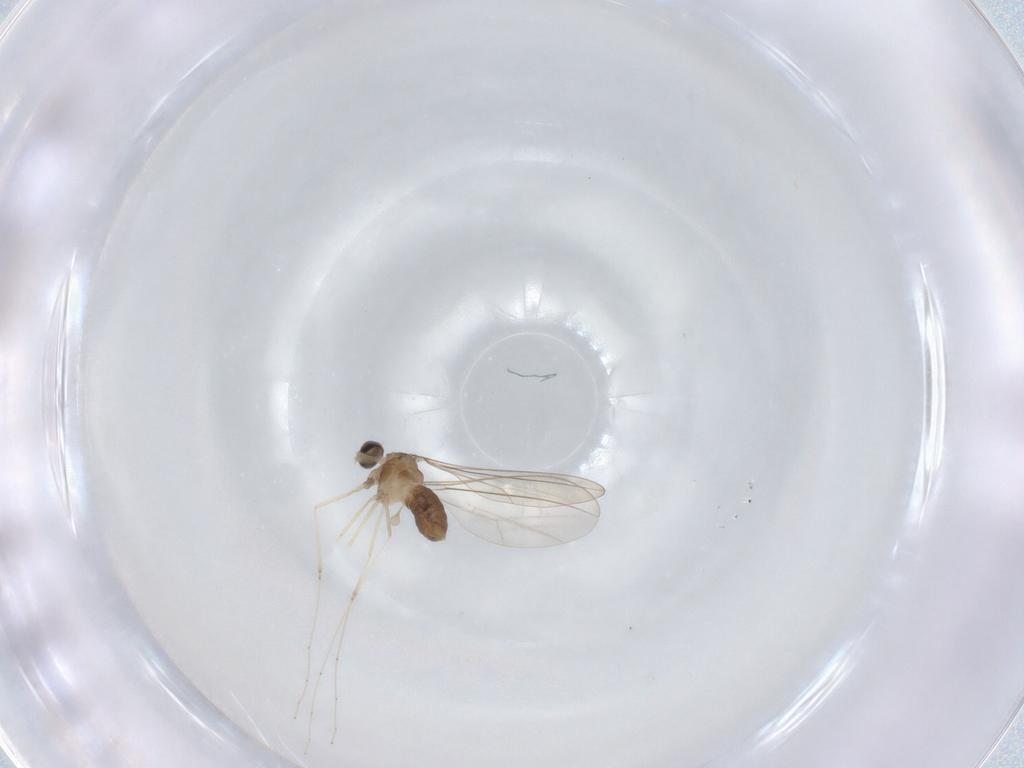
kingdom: Animalia
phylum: Arthropoda
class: Insecta
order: Diptera
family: Cecidomyiidae
